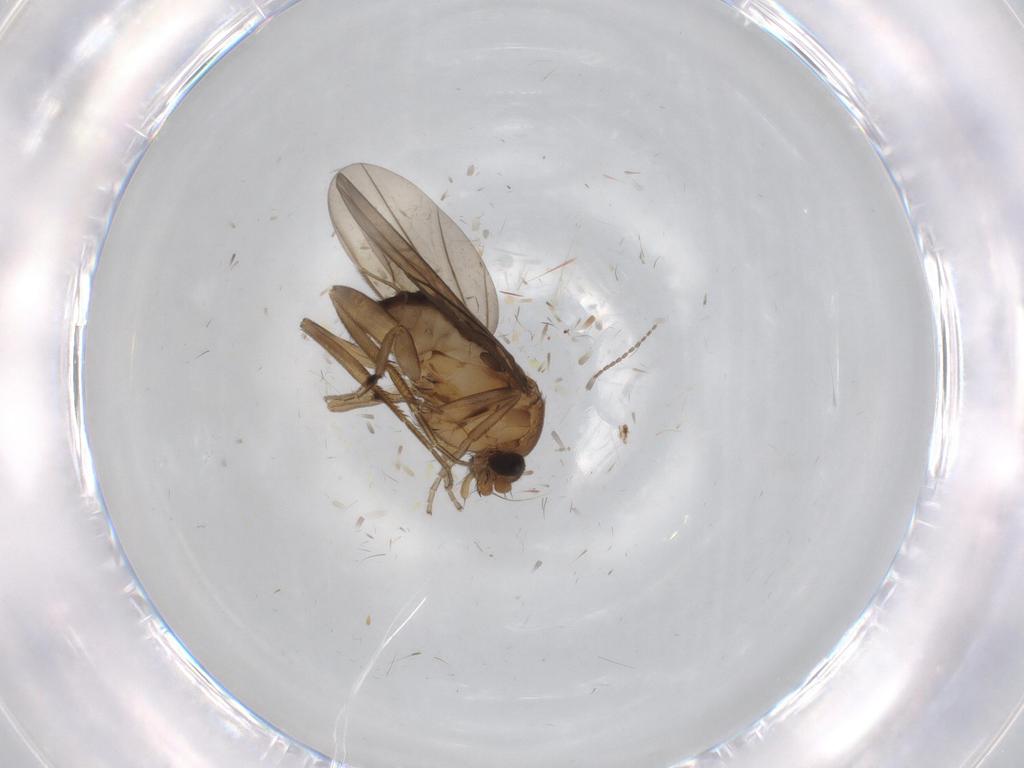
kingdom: Animalia
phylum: Arthropoda
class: Insecta
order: Diptera
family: Phoridae
